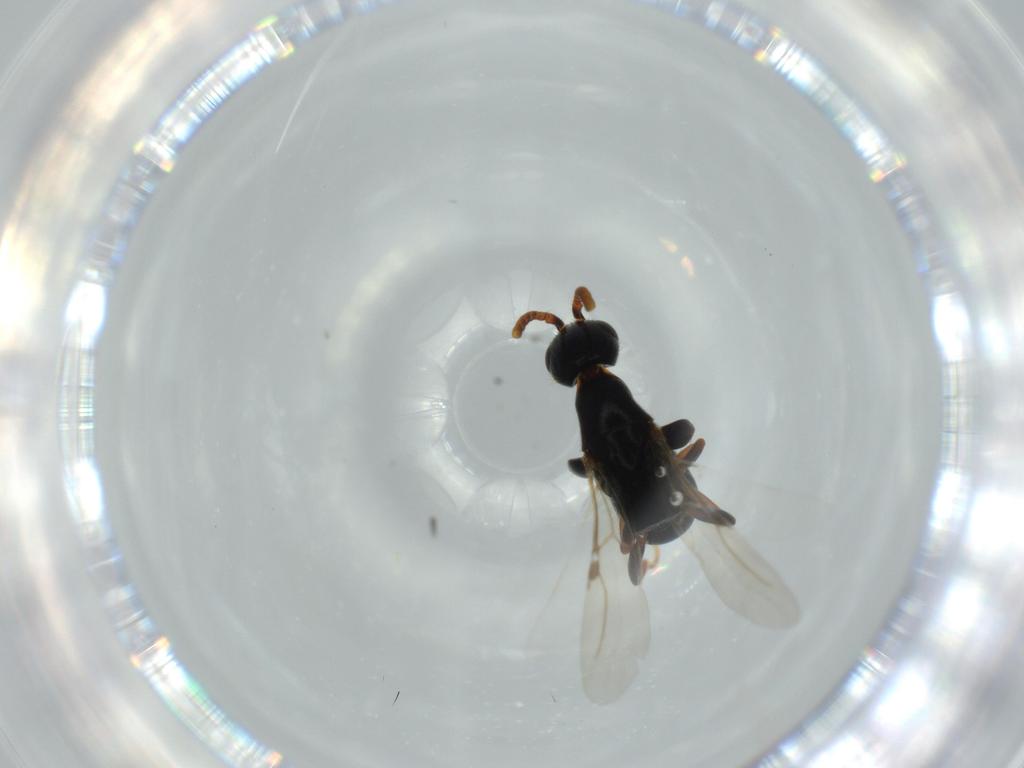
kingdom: Animalia
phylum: Arthropoda
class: Insecta
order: Hymenoptera
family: Bethylidae
